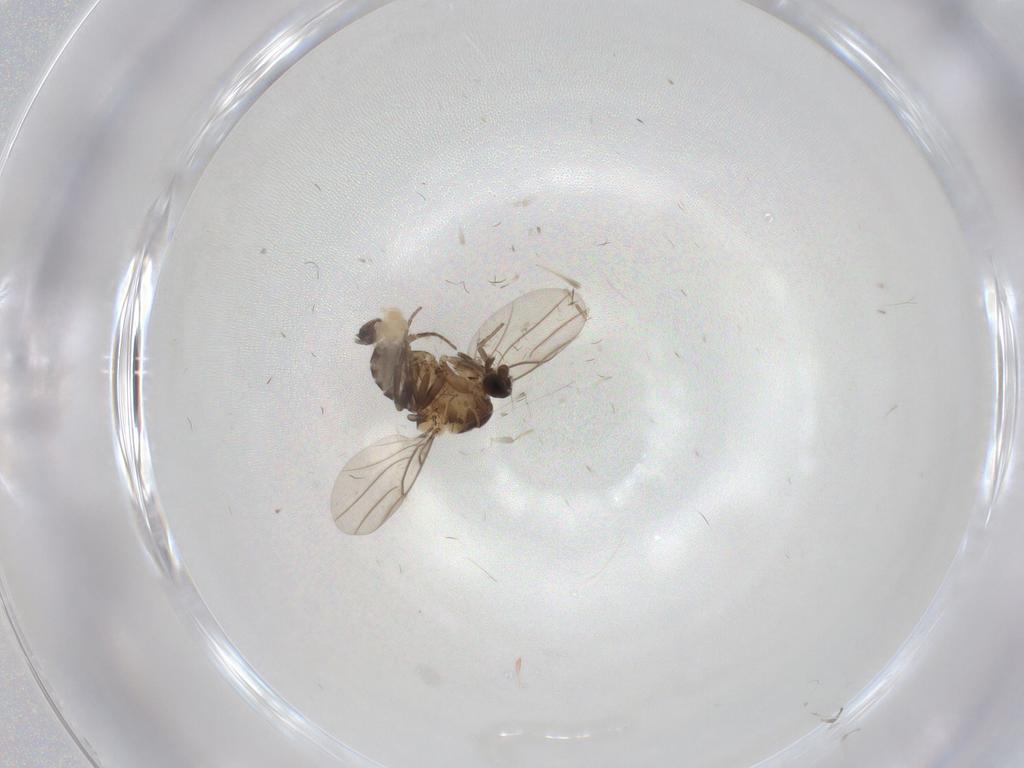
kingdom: Animalia
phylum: Arthropoda
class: Insecta
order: Diptera
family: Phoridae
